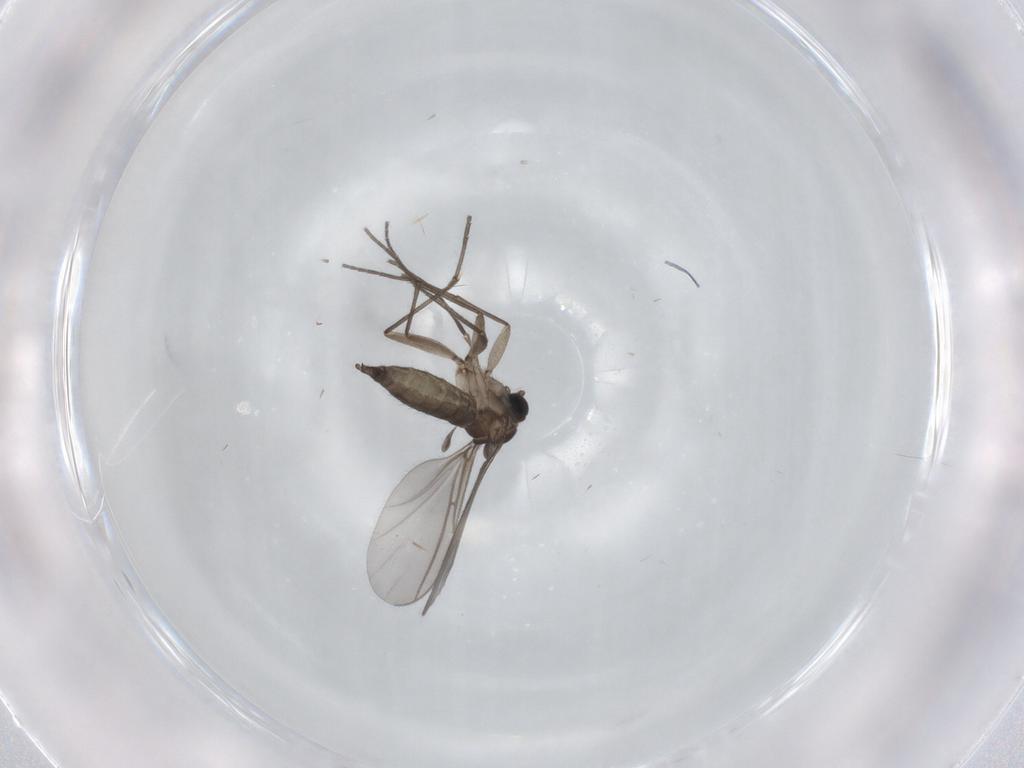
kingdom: Animalia
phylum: Arthropoda
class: Insecta
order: Diptera
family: Sciaridae
